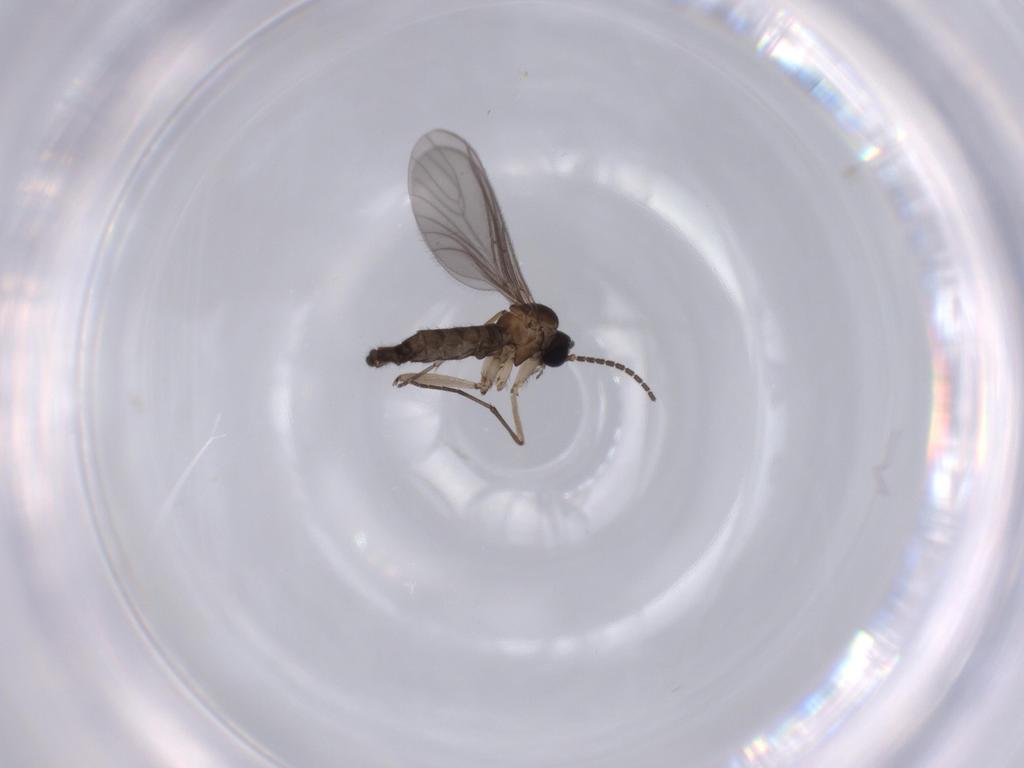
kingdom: Animalia
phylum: Arthropoda
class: Insecta
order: Diptera
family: Sciaridae
